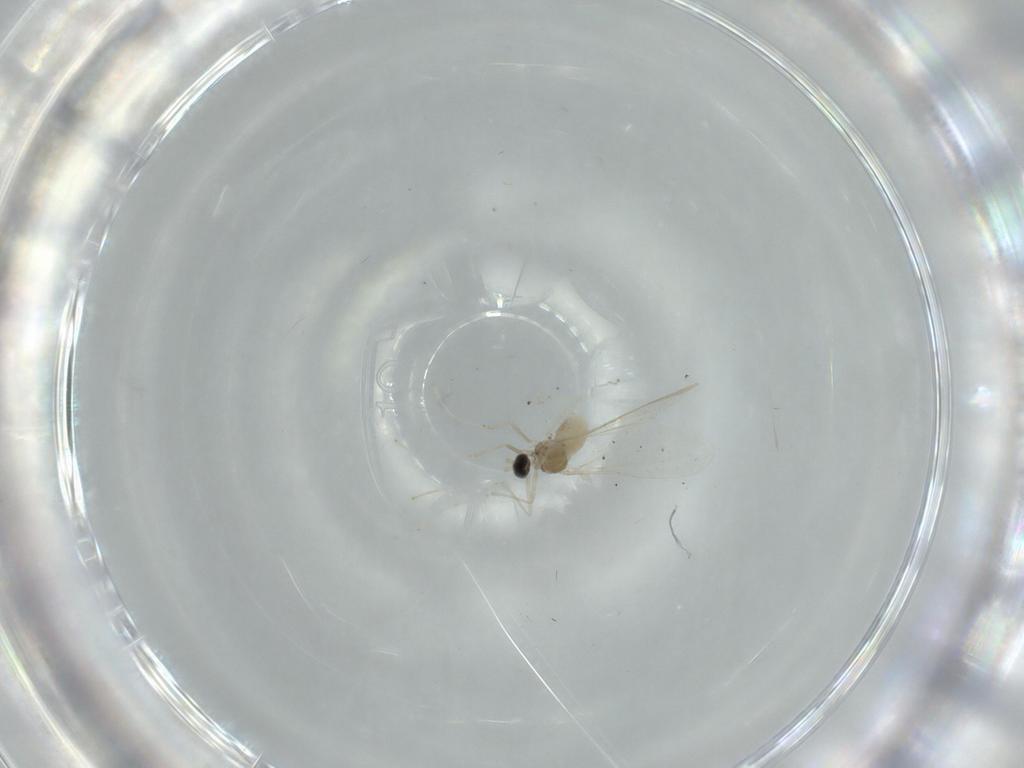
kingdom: Animalia
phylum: Arthropoda
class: Insecta
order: Diptera
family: Cecidomyiidae
